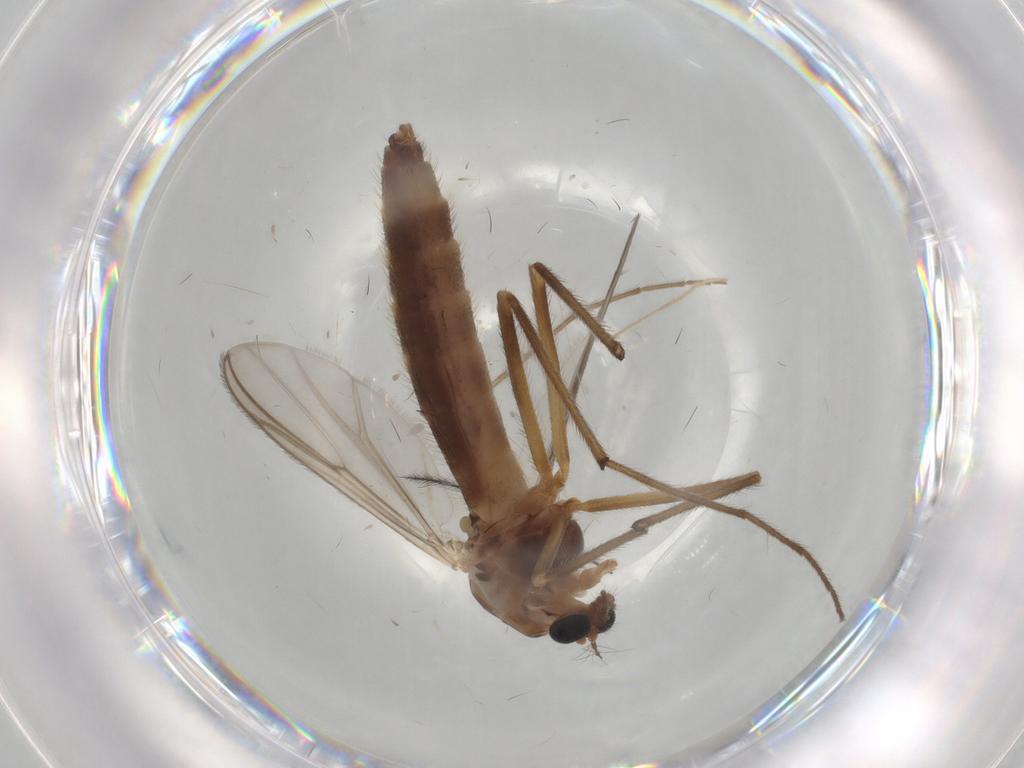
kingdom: Animalia
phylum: Arthropoda
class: Insecta
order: Diptera
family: Chironomidae
